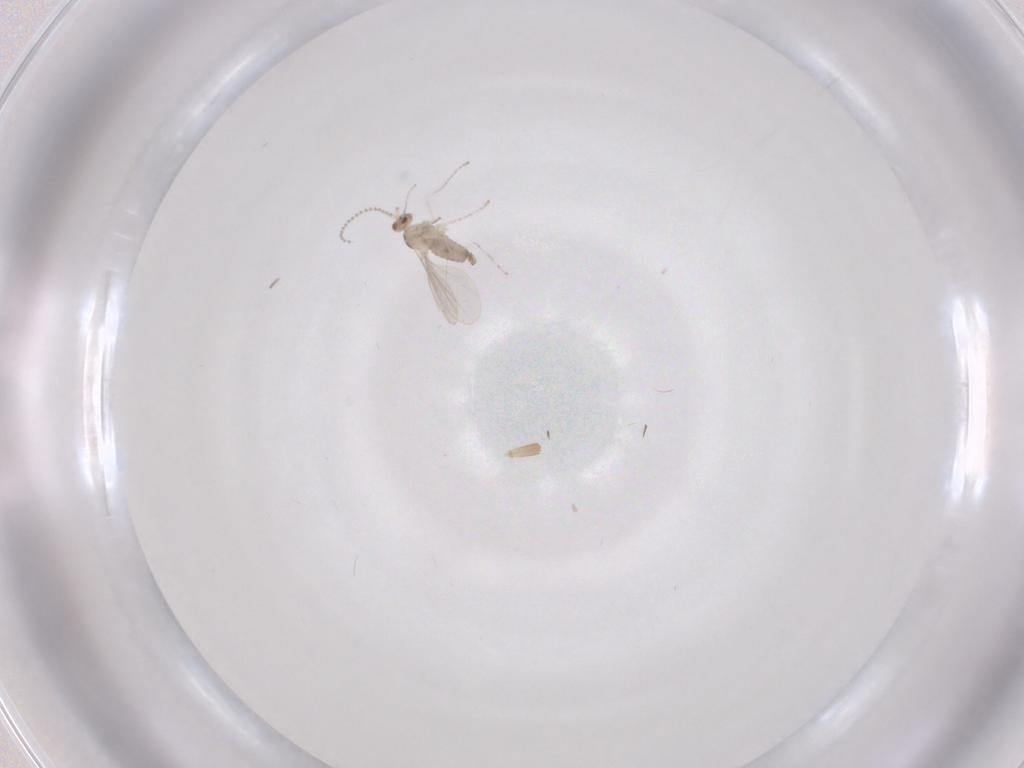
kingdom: Animalia
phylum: Arthropoda
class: Insecta
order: Diptera
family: Cecidomyiidae
